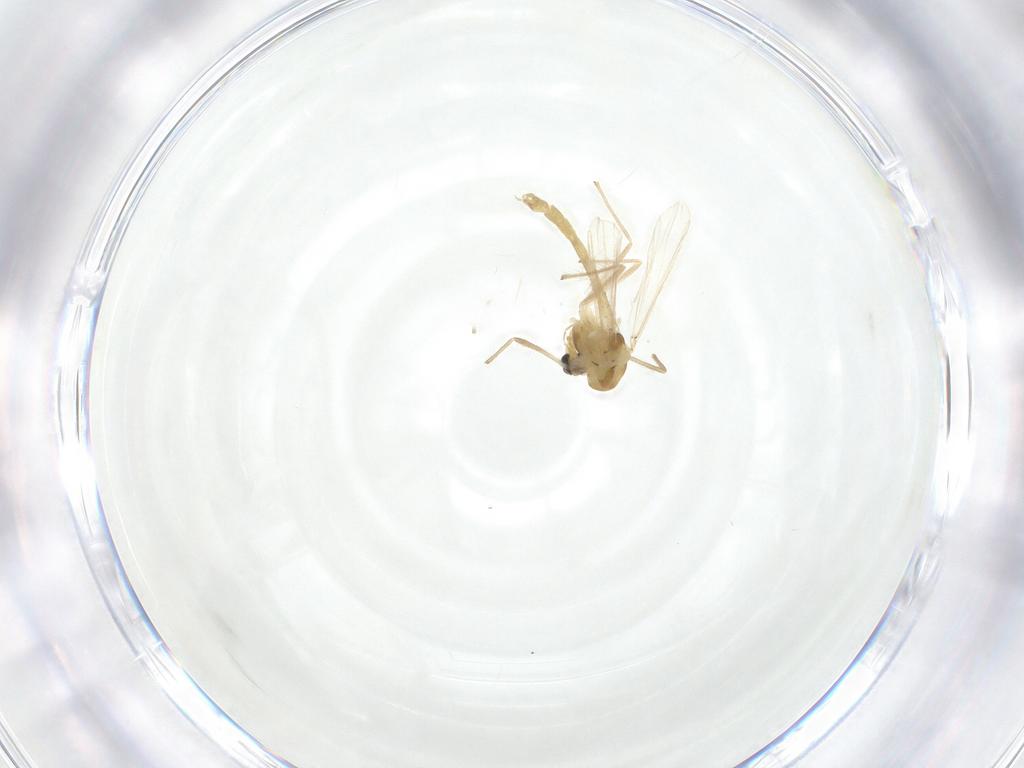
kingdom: Animalia
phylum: Arthropoda
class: Insecta
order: Diptera
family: Chironomidae
